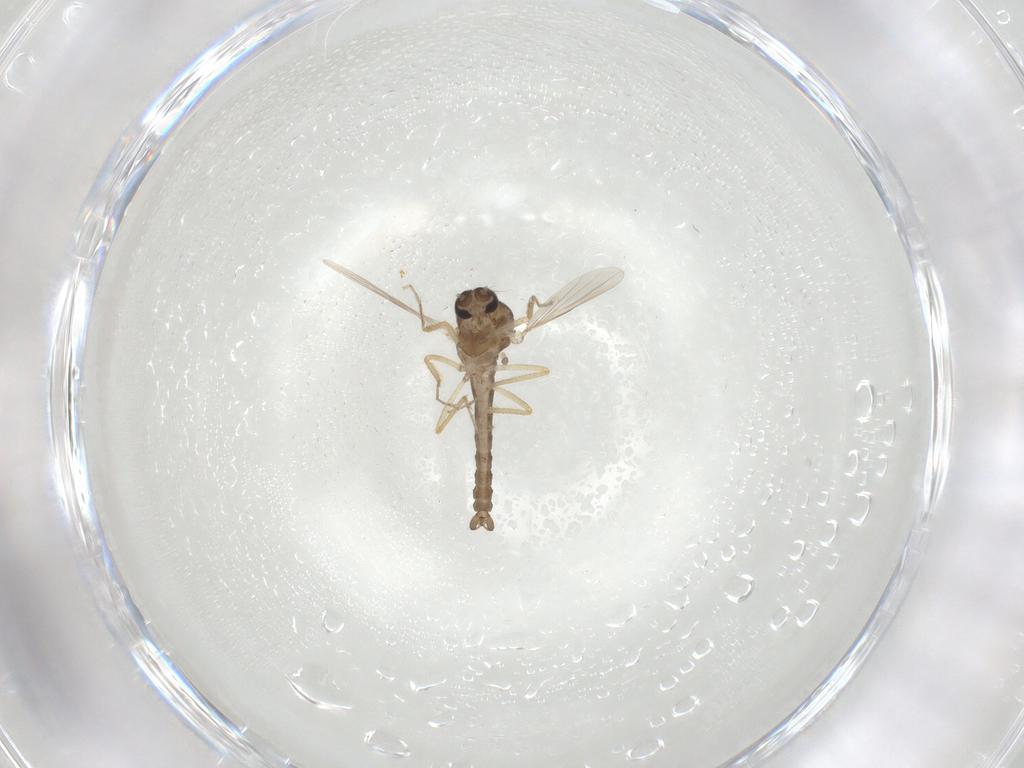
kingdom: Animalia
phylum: Arthropoda
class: Insecta
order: Diptera
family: Ceratopogonidae
